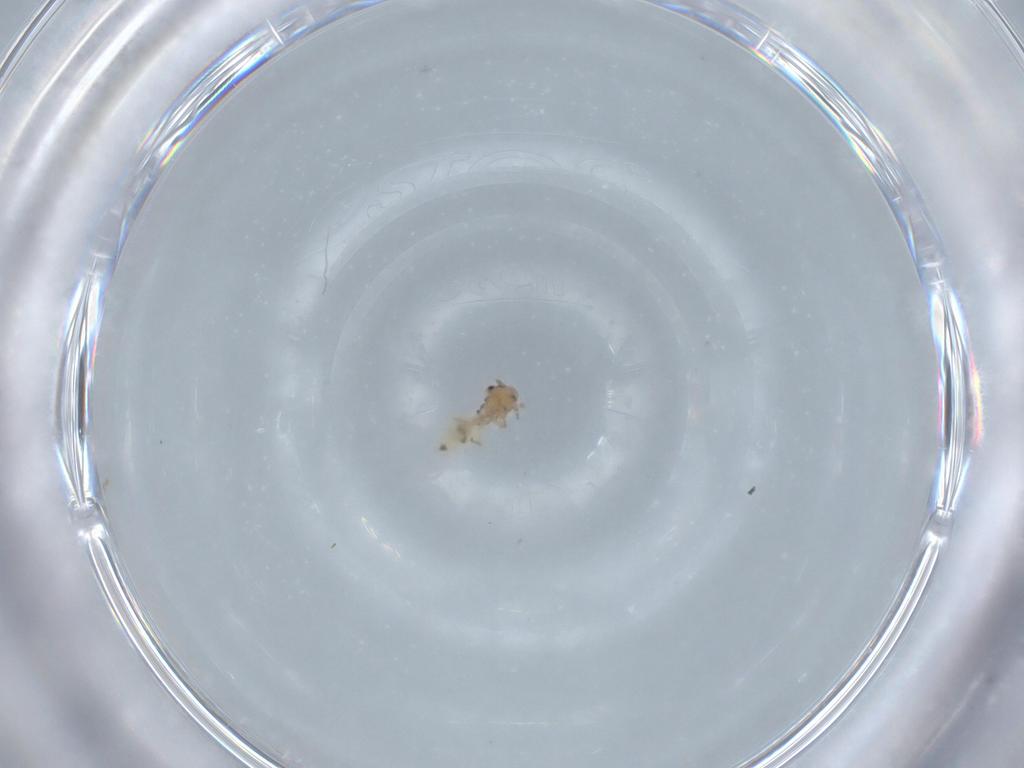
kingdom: Animalia
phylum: Arthropoda
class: Insecta
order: Psocodea
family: Lepidopsocidae
